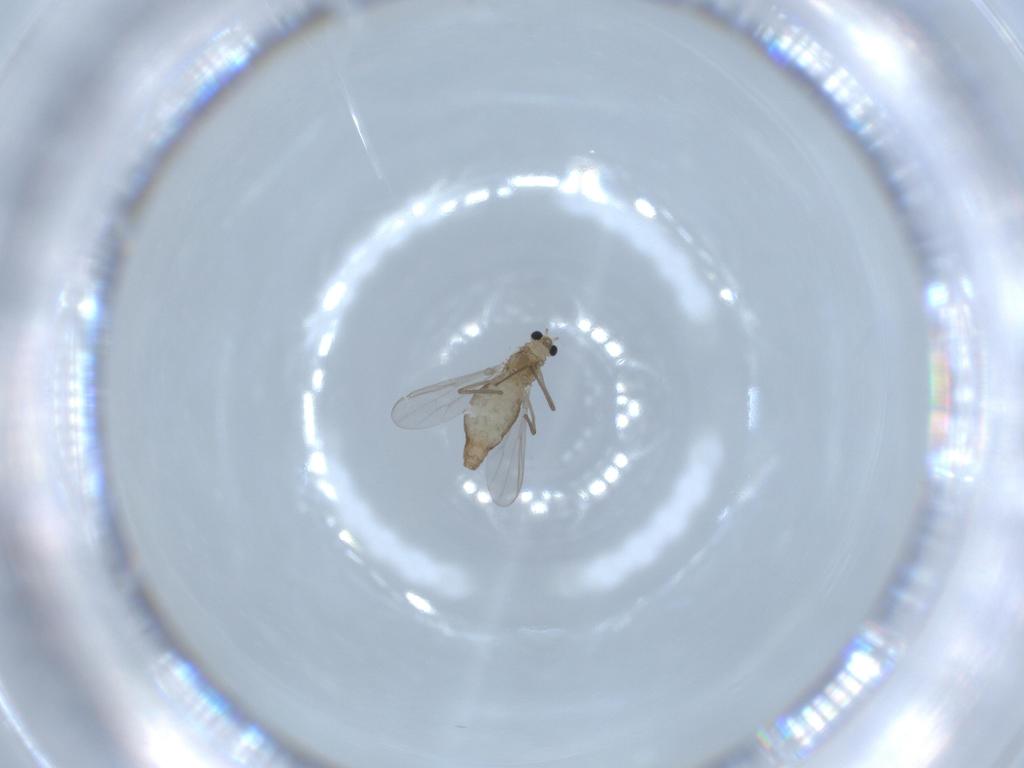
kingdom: Animalia
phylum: Arthropoda
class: Insecta
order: Diptera
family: Chironomidae
